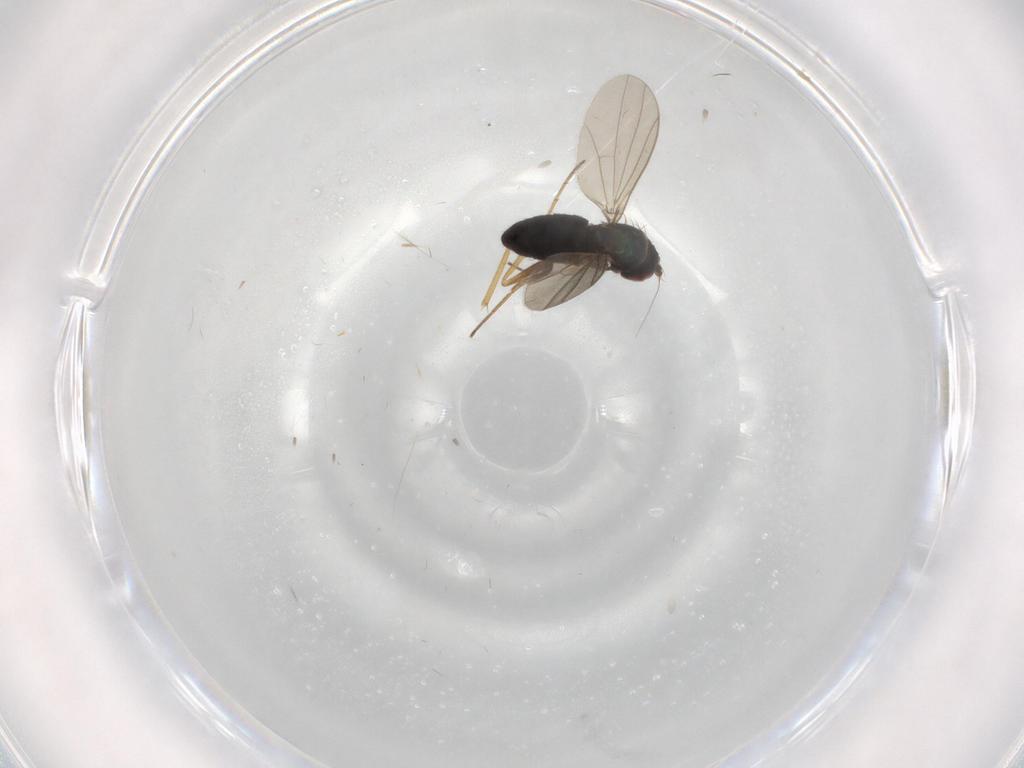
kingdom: Animalia
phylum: Arthropoda
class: Insecta
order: Diptera
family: Dolichopodidae
